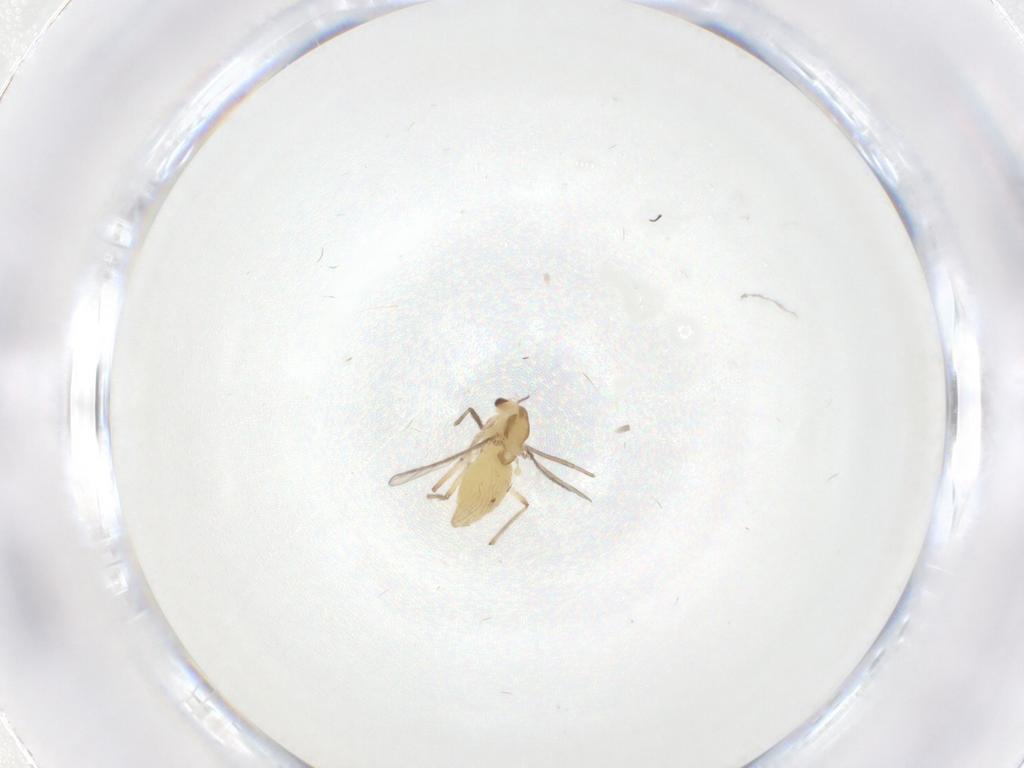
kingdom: Animalia
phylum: Arthropoda
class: Insecta
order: Diptera
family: Chironomidae
